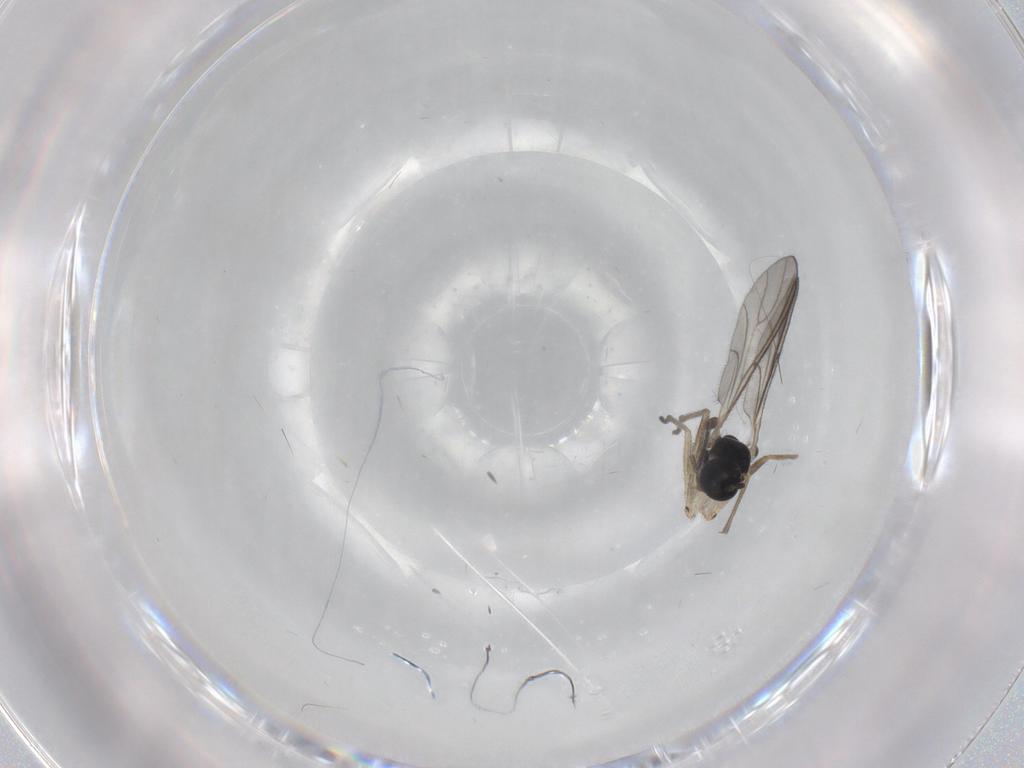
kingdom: Animalia
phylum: Arthropoda
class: Insecta
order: Diptera
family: Sciaridae
